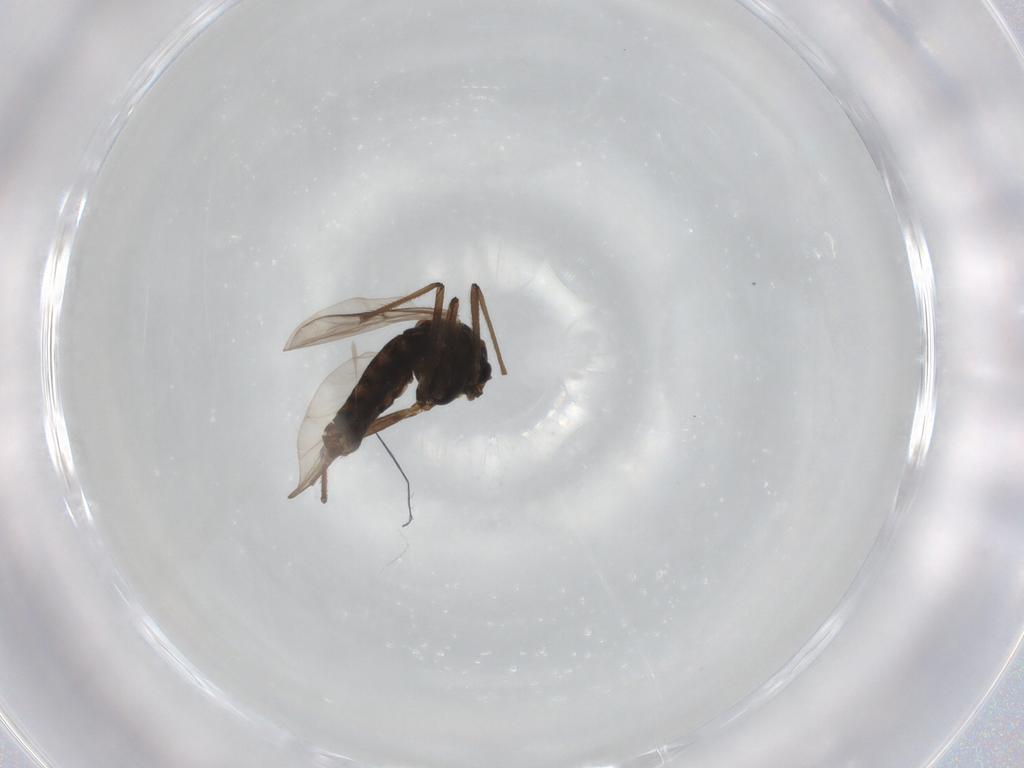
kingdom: Animalia
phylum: Arthropoda
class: Insecta
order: Diptera
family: Chironomidae
